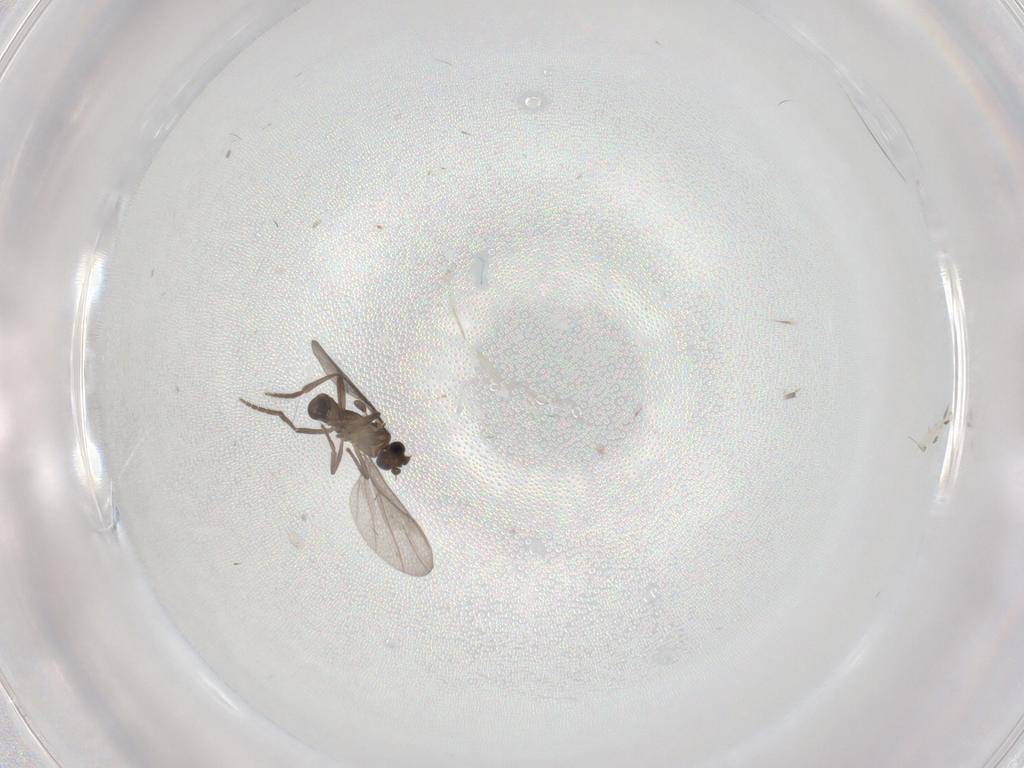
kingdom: Animalia
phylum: Arthropoda
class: Insecta
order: Diptera
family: Phoridae
